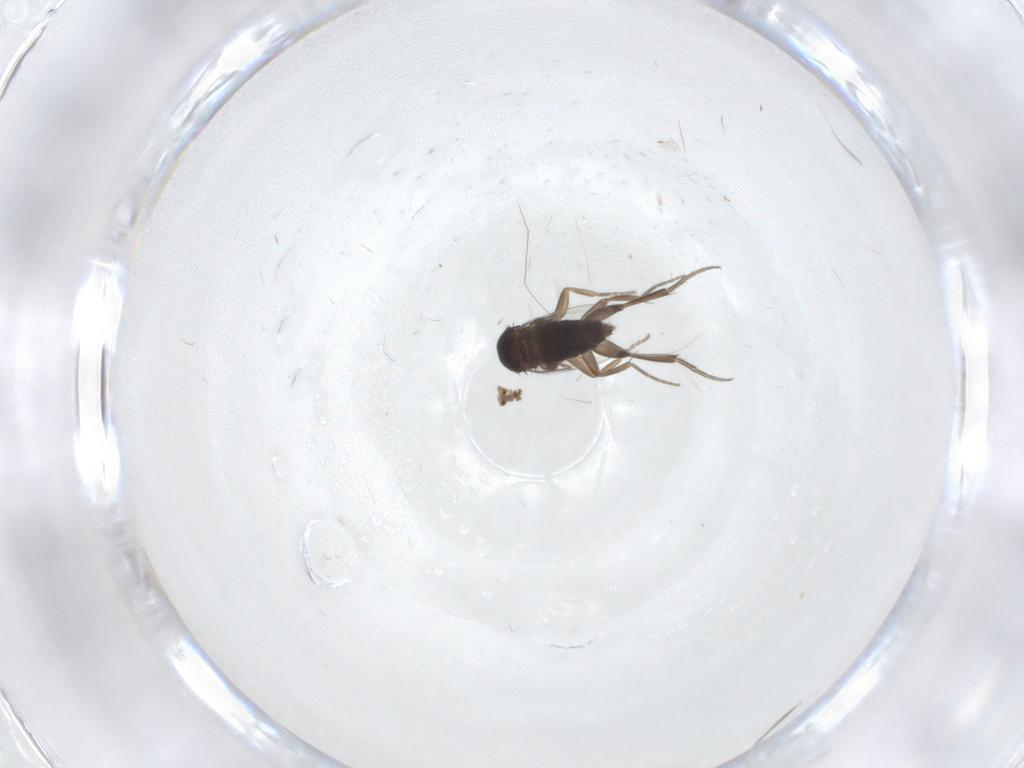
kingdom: Animalia
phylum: Arthropoda
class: Insecta
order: Diptera
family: Phoridae
